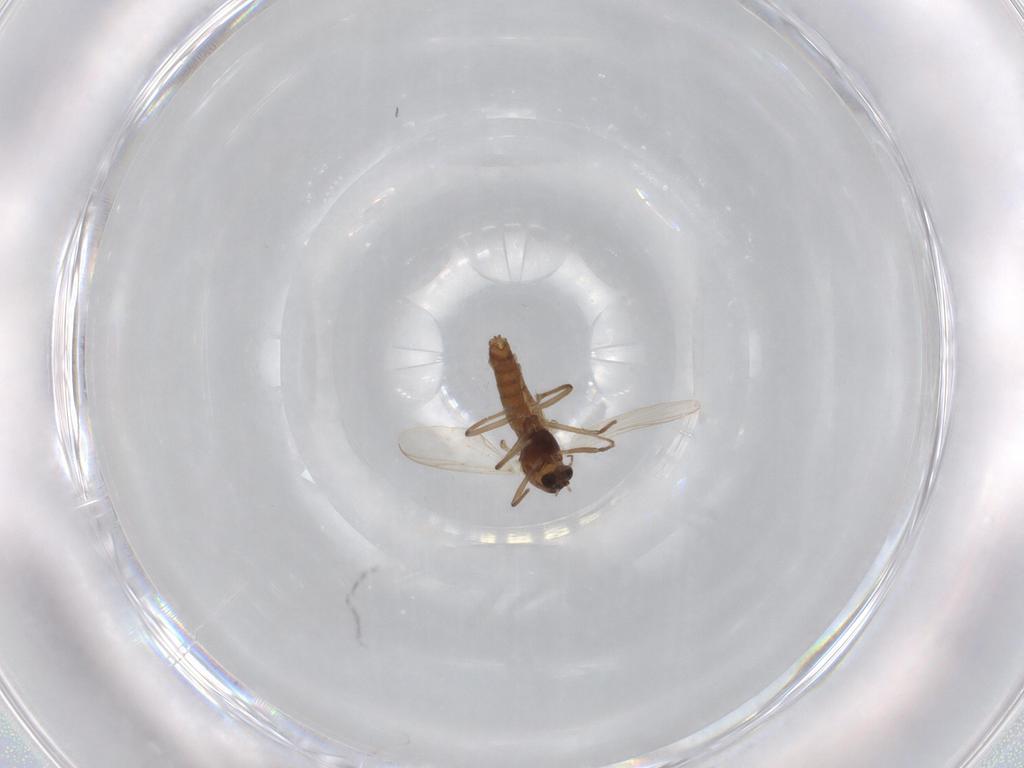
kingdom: Animalia
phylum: Arthropoda
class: Insecta
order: Diptera
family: Chironomidae
